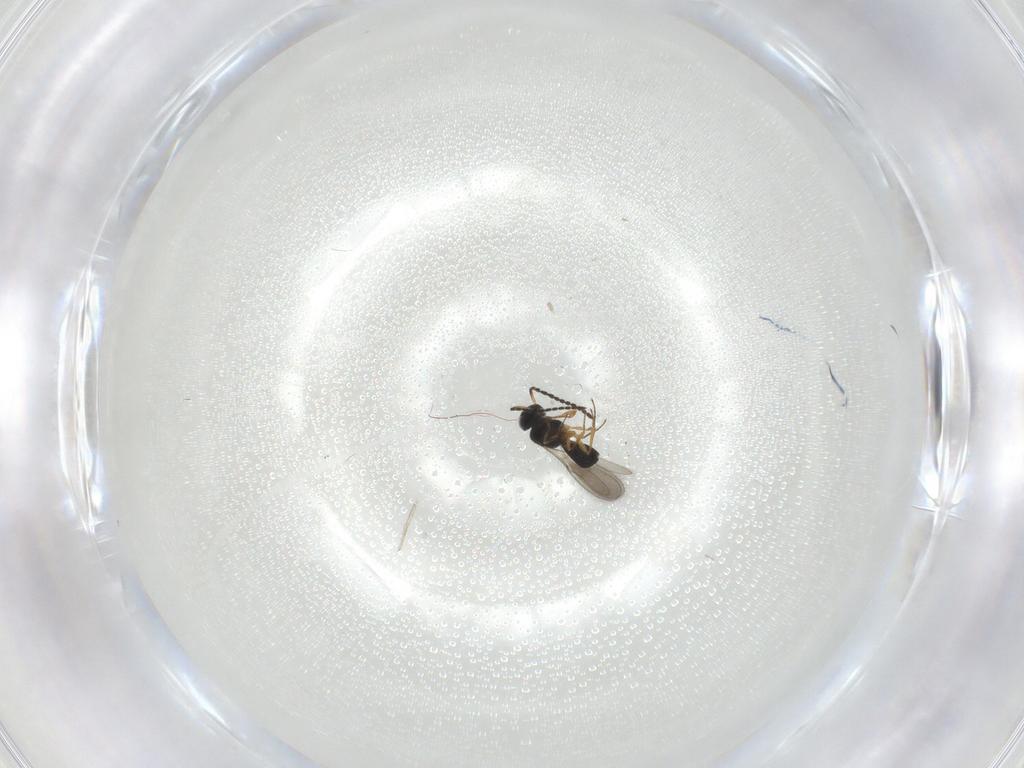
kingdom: Animalia
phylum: Arthropoda
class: Insecta
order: Hymenoptera
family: Scelionidae
